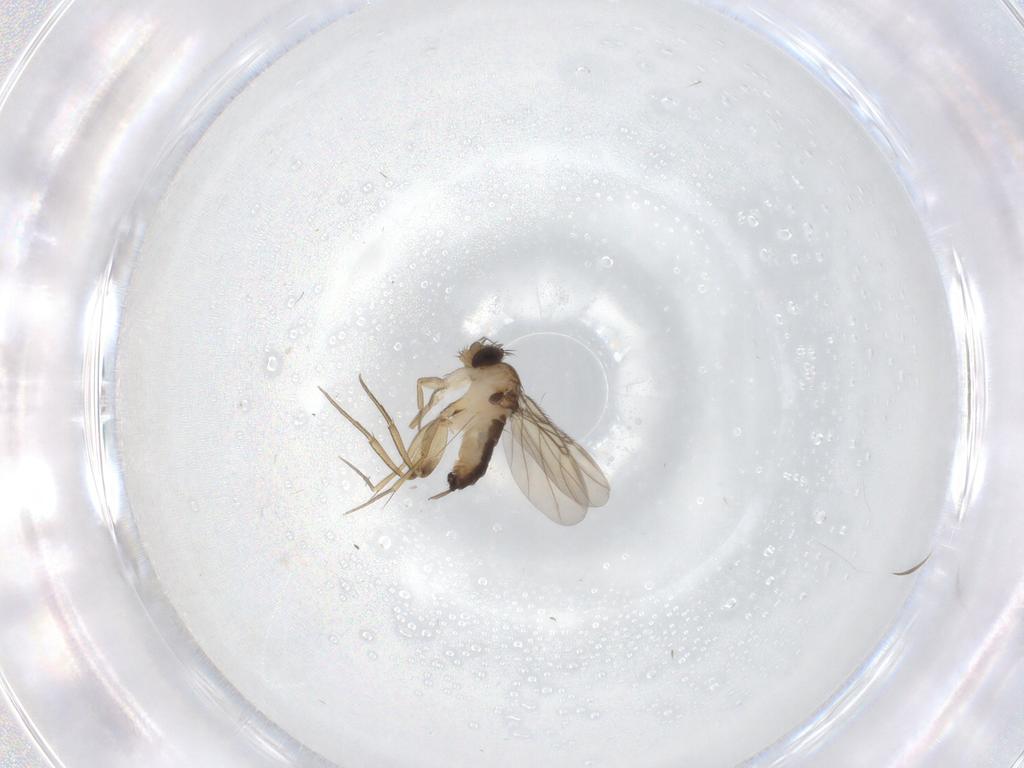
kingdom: Animalia
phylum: Arthropoda
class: Insecta
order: Diptera
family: Phoridae
